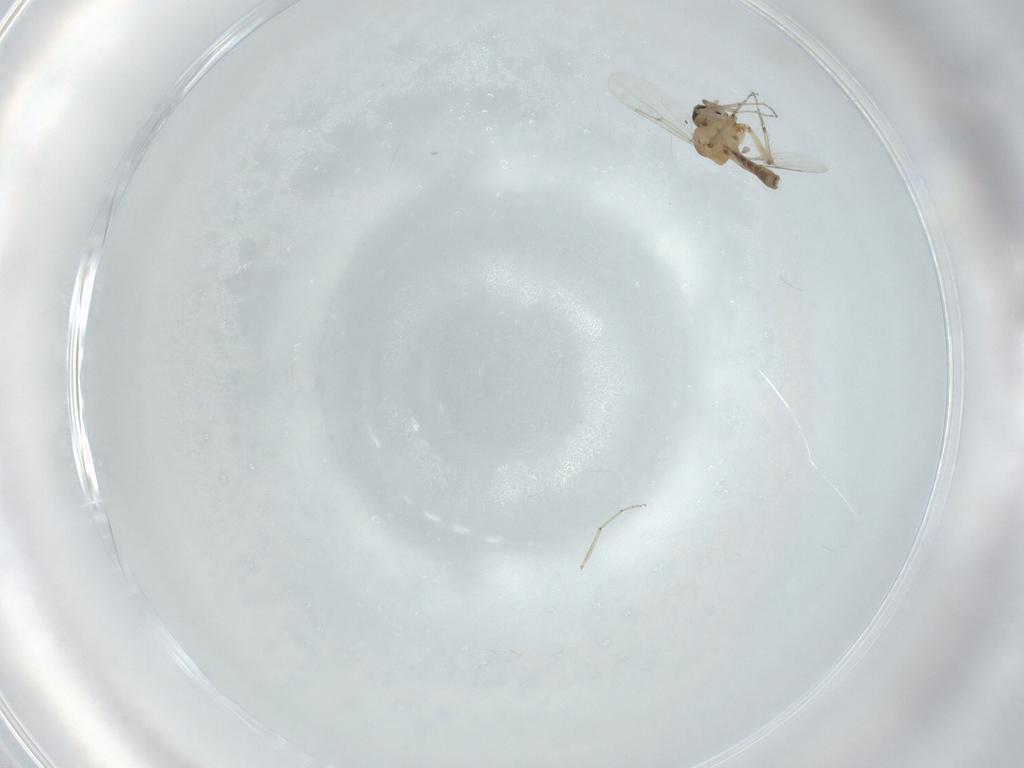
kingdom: Animalia
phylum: Arthropoda
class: Insecta
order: Diptera
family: Ceratopogonidae
